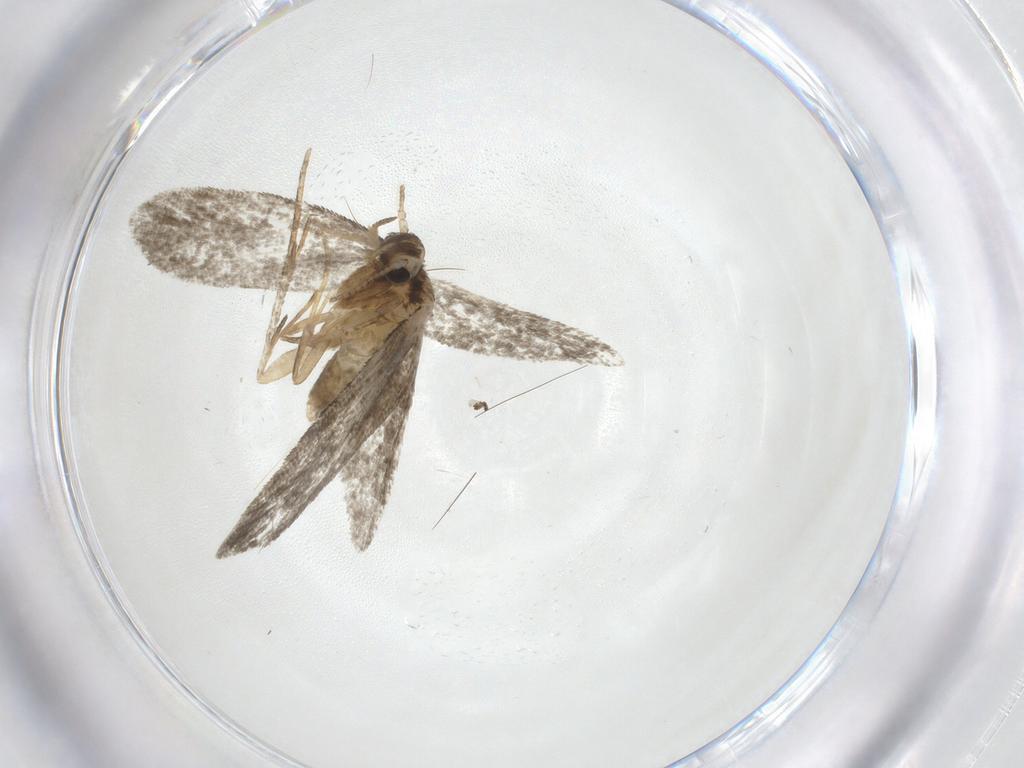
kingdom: Animalia
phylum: Arthropoda
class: Insecta
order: Lepidoptera
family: Psychidae
